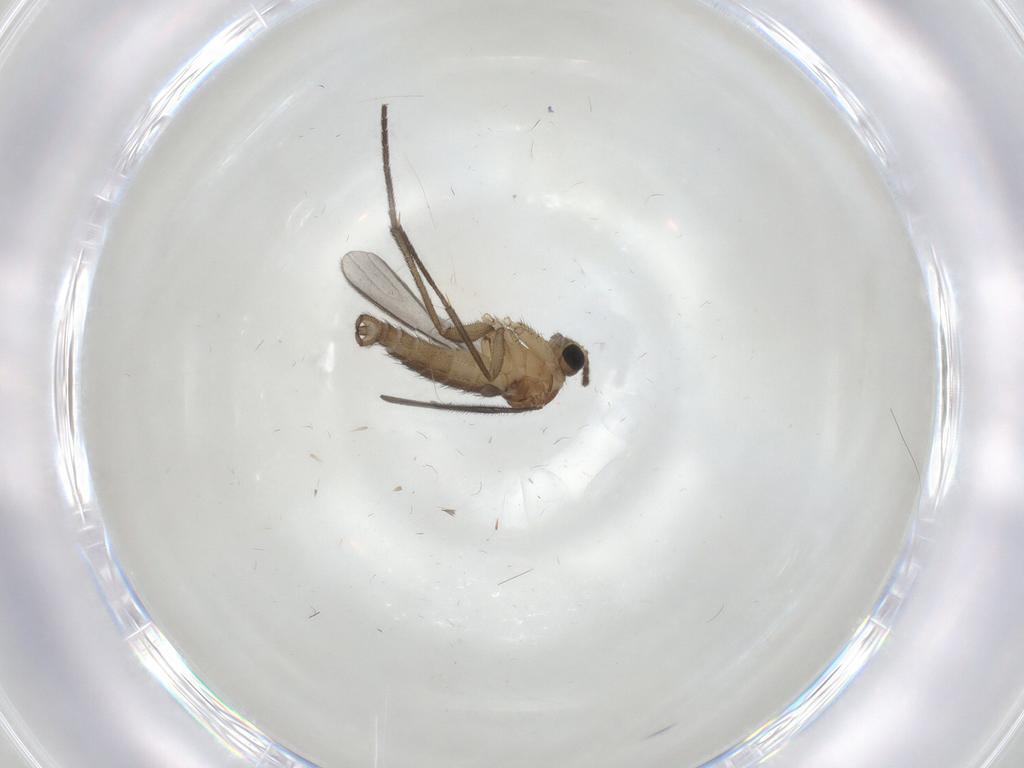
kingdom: Animalia
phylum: Arthropoda
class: Insecta
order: Diptera
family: Sciaridae
